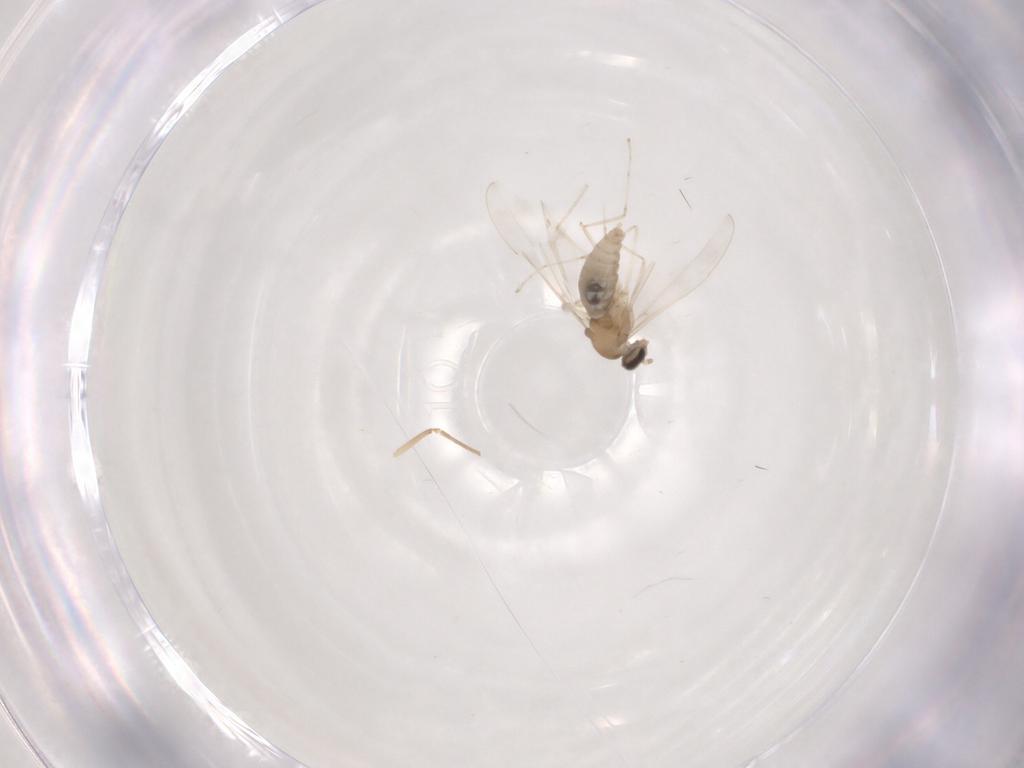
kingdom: Animalia
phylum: Arthropoda
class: Insecta
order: Diptera
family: Cecidomyiidae
